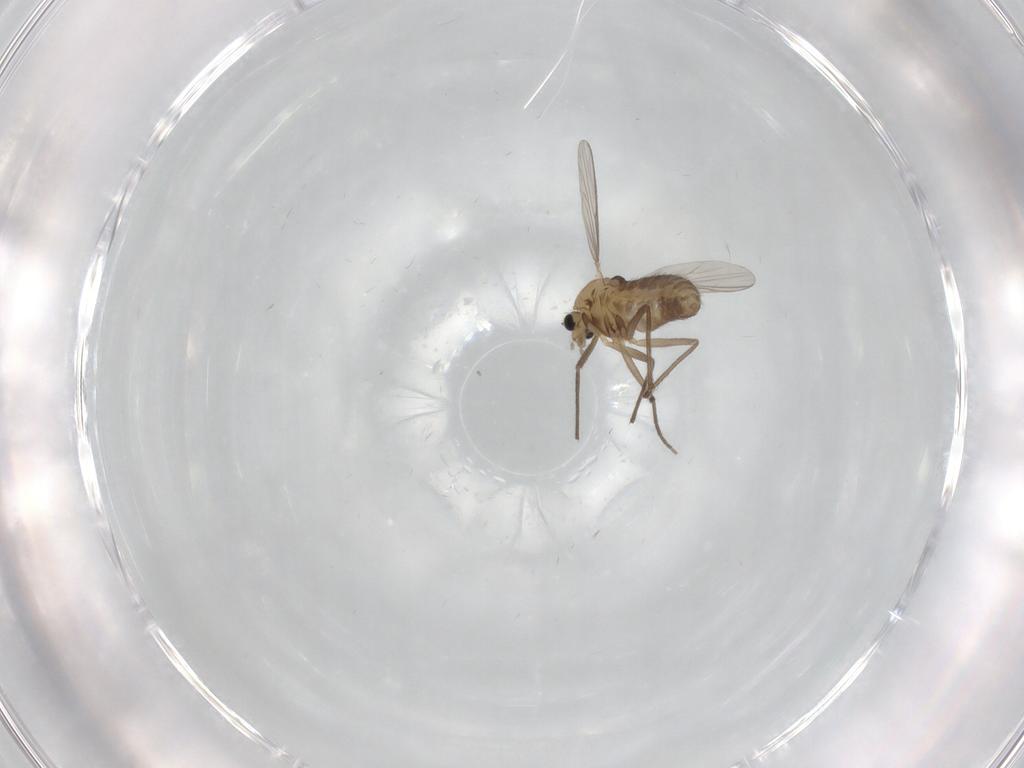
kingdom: Animalia
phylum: Arthropoda
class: Insecta
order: Diptera
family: Chironomidae
